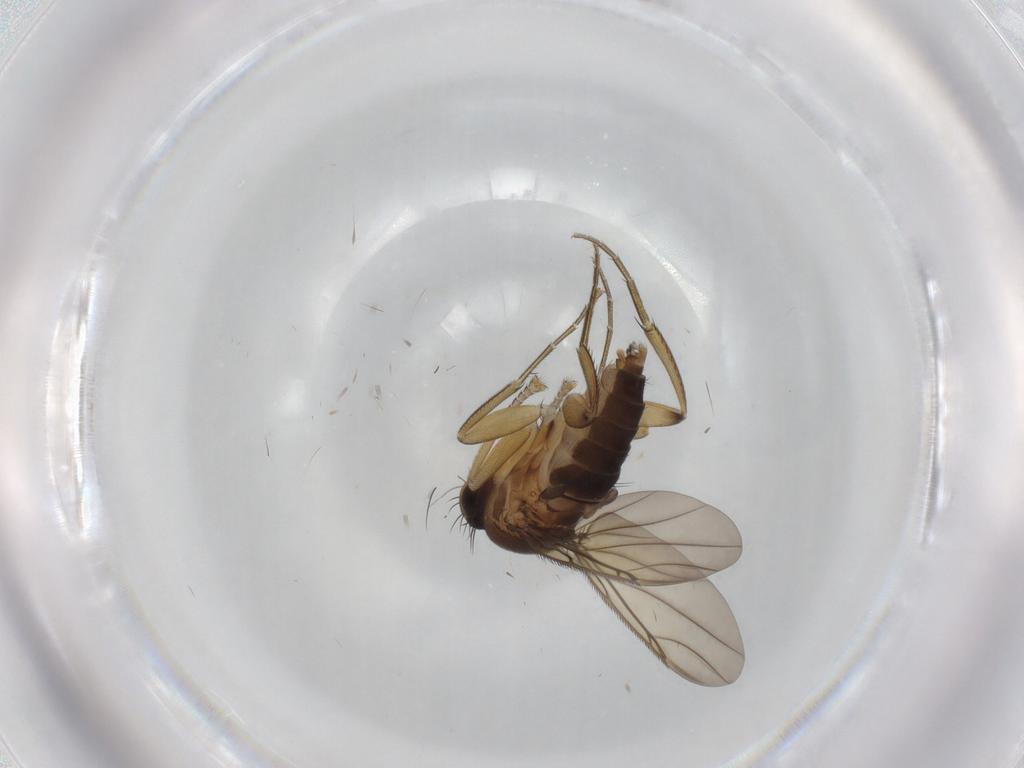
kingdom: Animalia
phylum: Arthropoda
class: Insecta
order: Diptera
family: Phoridae
